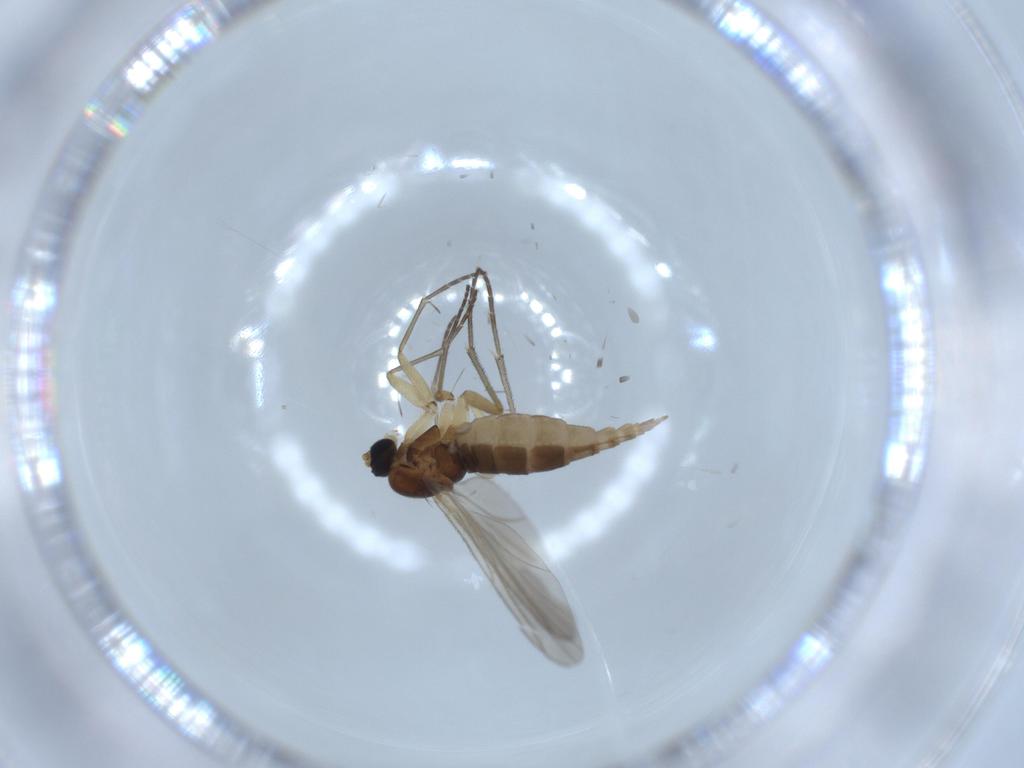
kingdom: Animalia
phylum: Arthropoda
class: Insecta
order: Diptera
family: Sciaridae
